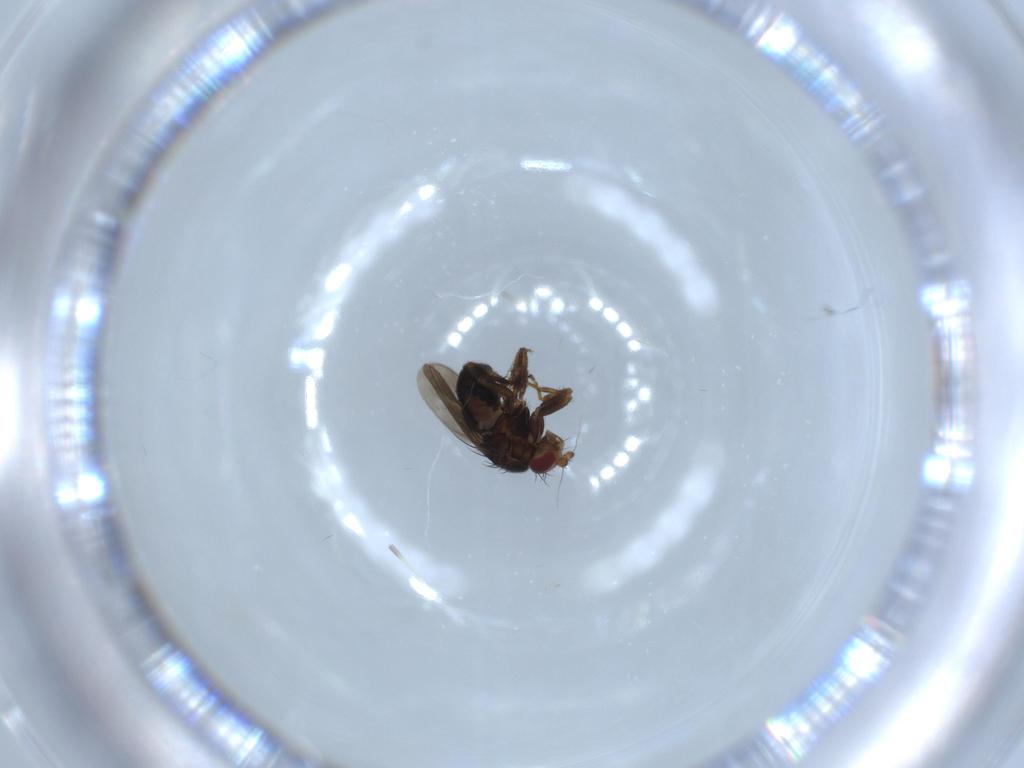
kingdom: Animalia
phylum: Arthropoda
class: Insecta
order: Diptera
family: Sphaeroceridae
